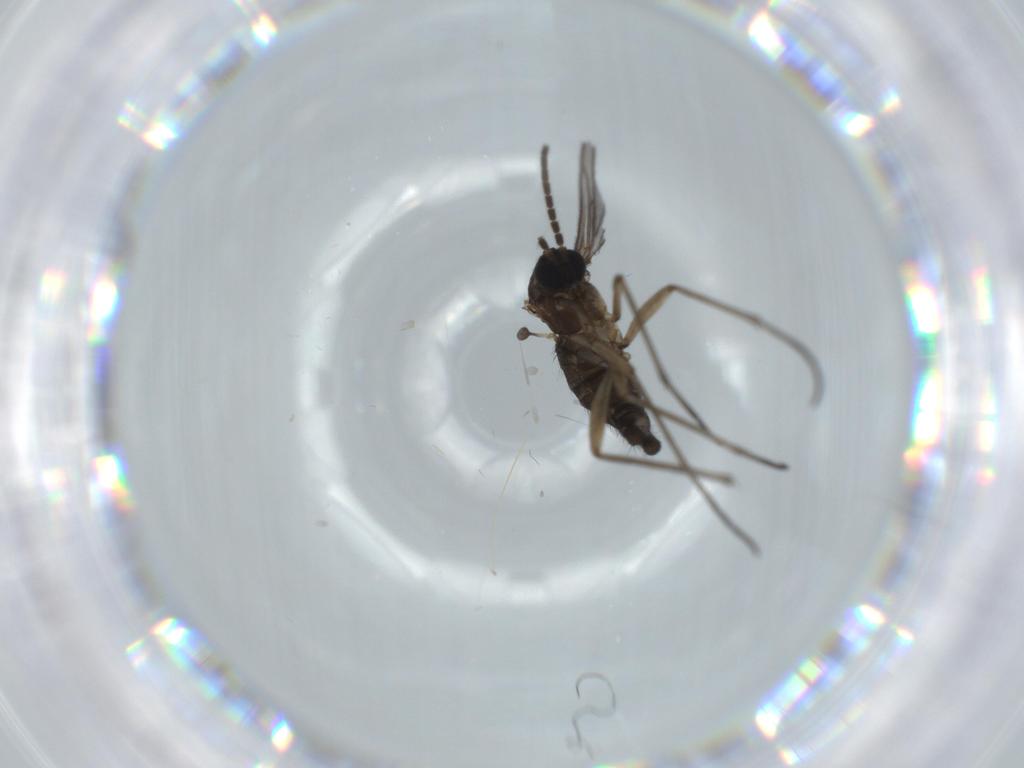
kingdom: Animalia
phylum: Arthropoda
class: Insecta
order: Diptera
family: Sciaridae
